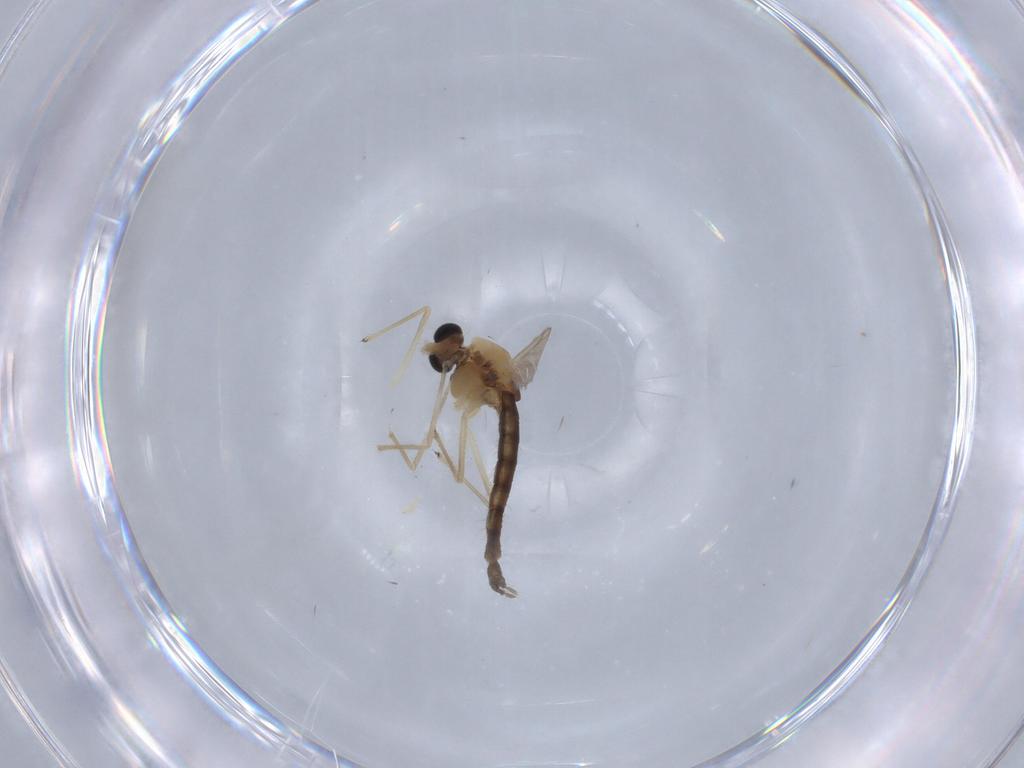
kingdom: Animalia
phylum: Arthropoda
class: Insecta
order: Diptera
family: Chironomidae
